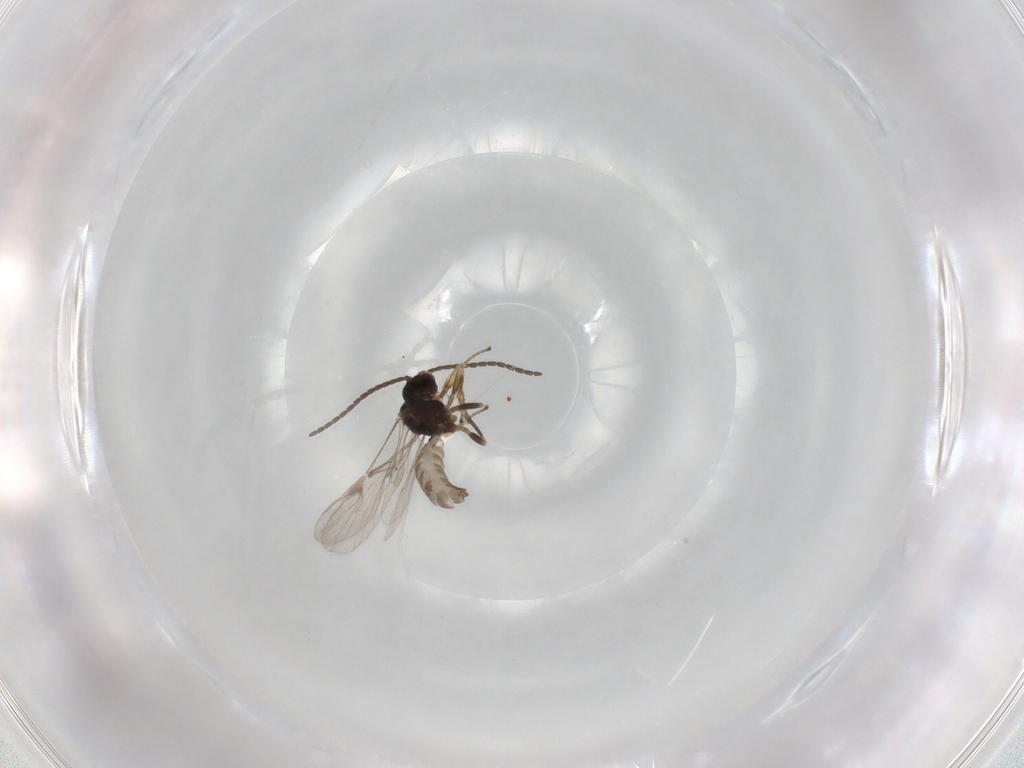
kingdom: Animalia
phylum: Arthropoda
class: Insecta
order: Hymenoptera
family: Braconidae
